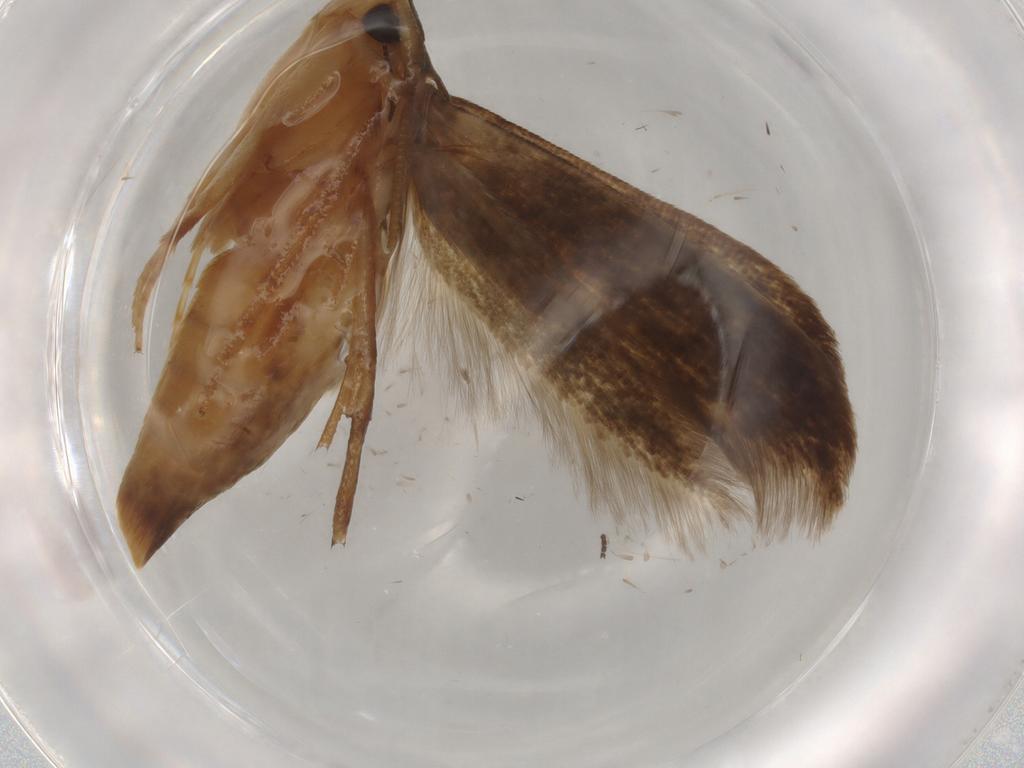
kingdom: Animalia
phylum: Arthropoda
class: Insecta
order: Lepidoptera
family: Tineidae
